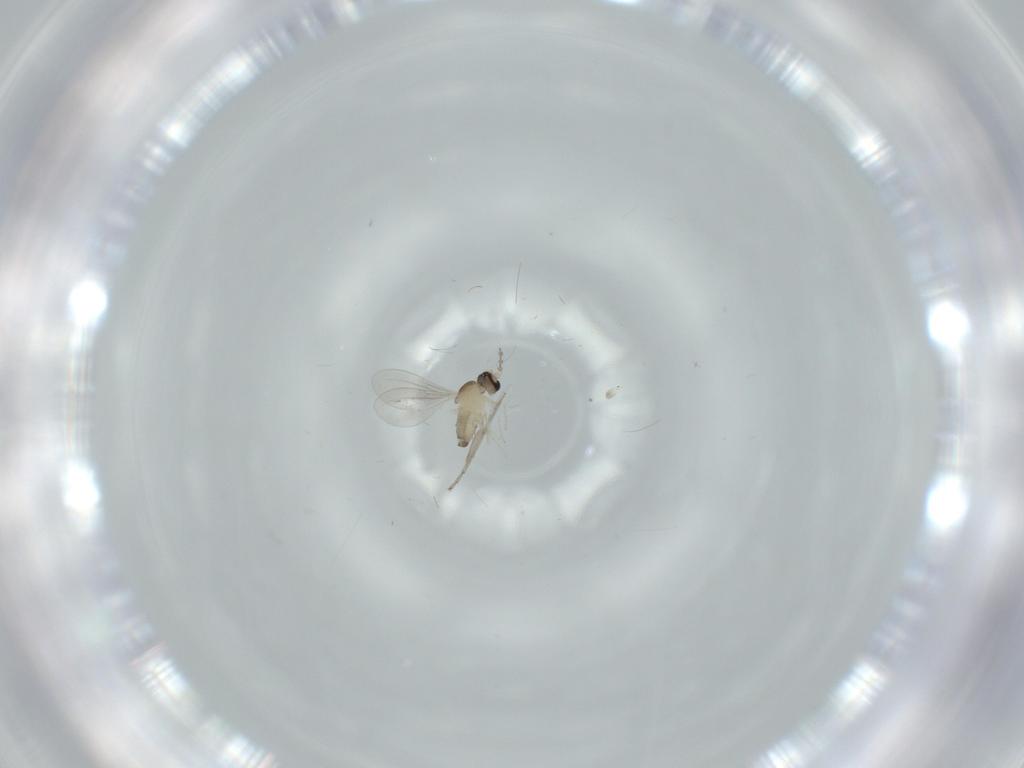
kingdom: Animalia
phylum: Arthropoda
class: Insecta
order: Diptera
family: Cecidomyiidae
